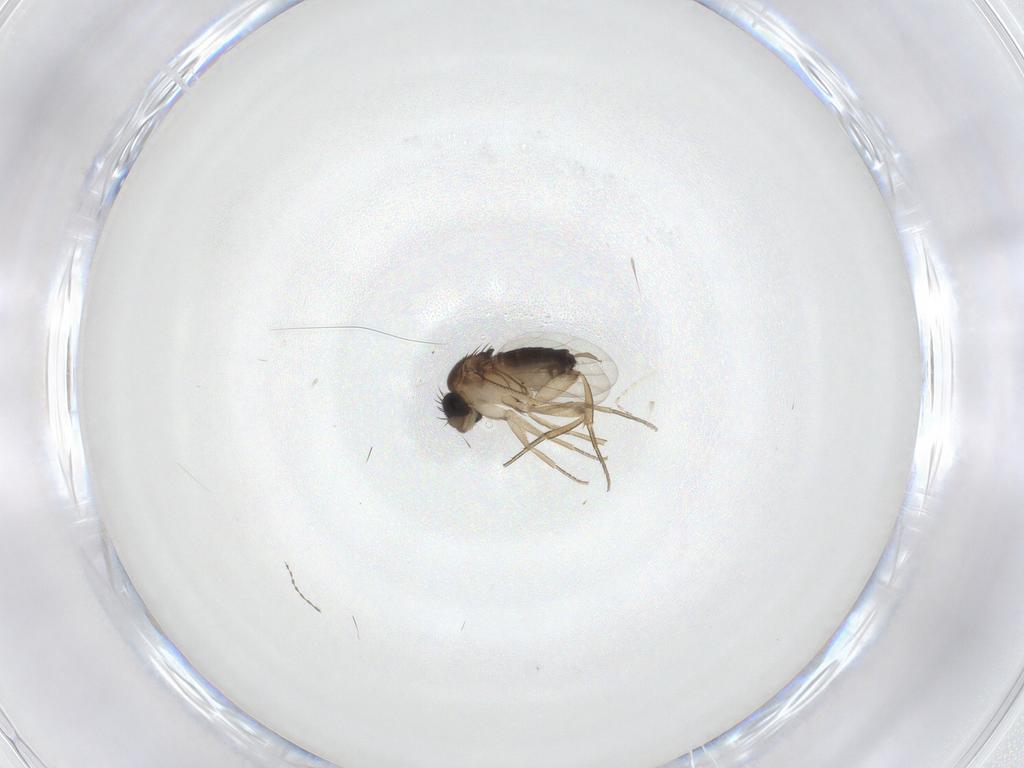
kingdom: Animalia
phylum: Arthropoda
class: Insecta
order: Diptera
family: Cecidomyiidae
